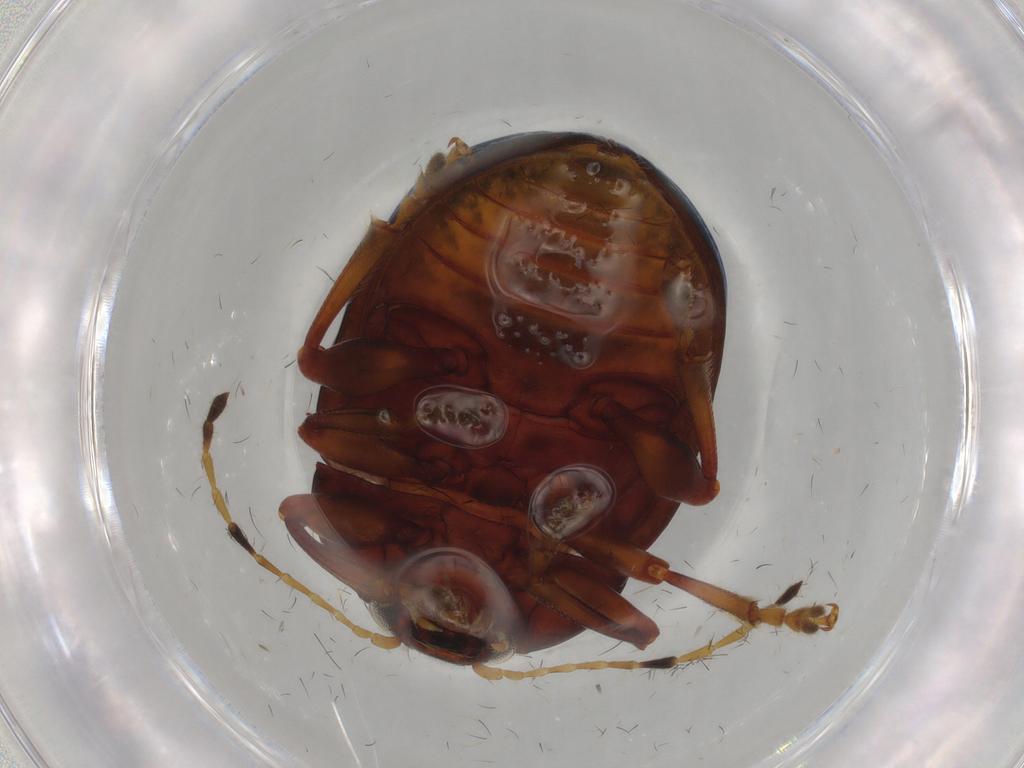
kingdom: Animalia
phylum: Arthropoda
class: Insecta
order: Coleoptera
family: Chrysomelidae
